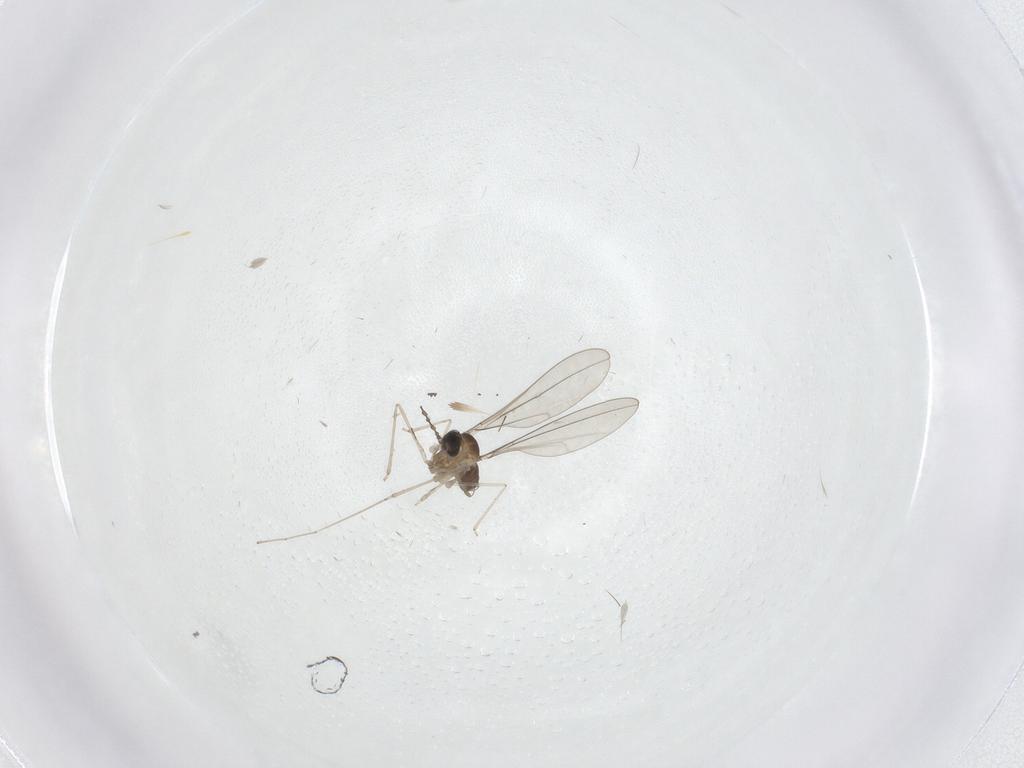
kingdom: Animalia
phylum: Arthropoda
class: Insecta
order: Diptera
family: Cecidomyiidae
